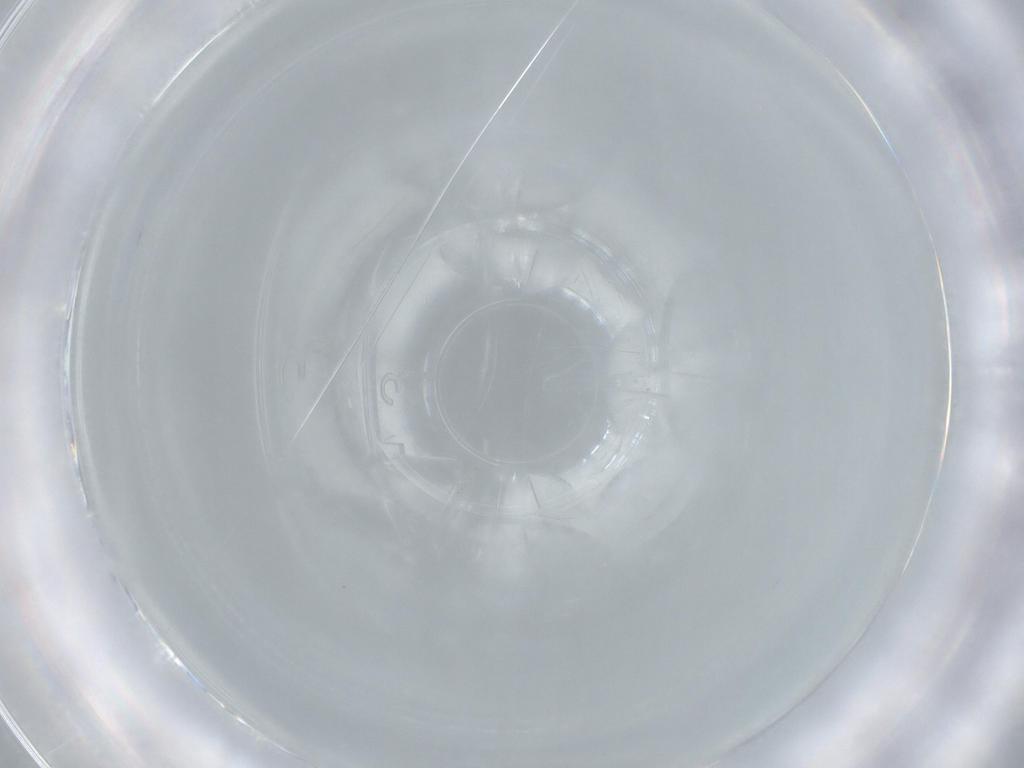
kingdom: Animalia
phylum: Arthropoda
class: Insecta
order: Diptera
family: Cecidomyiidae
